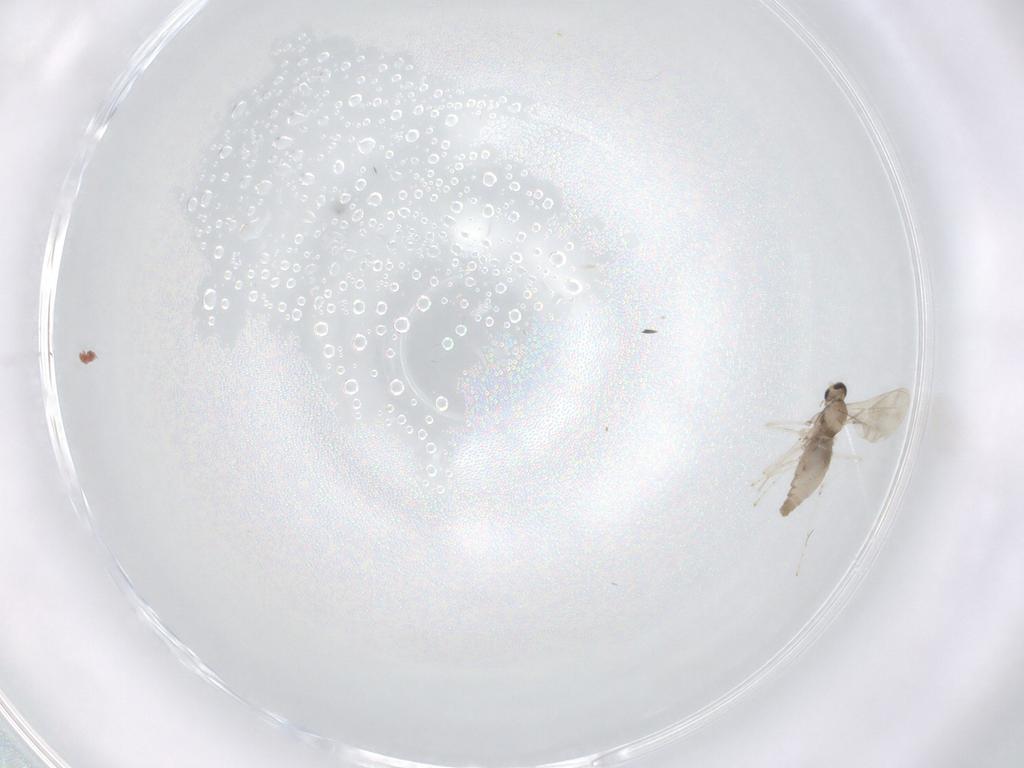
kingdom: Animalia
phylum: Arthropoda
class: Insecta
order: Diptera
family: Cecidomyiidae
